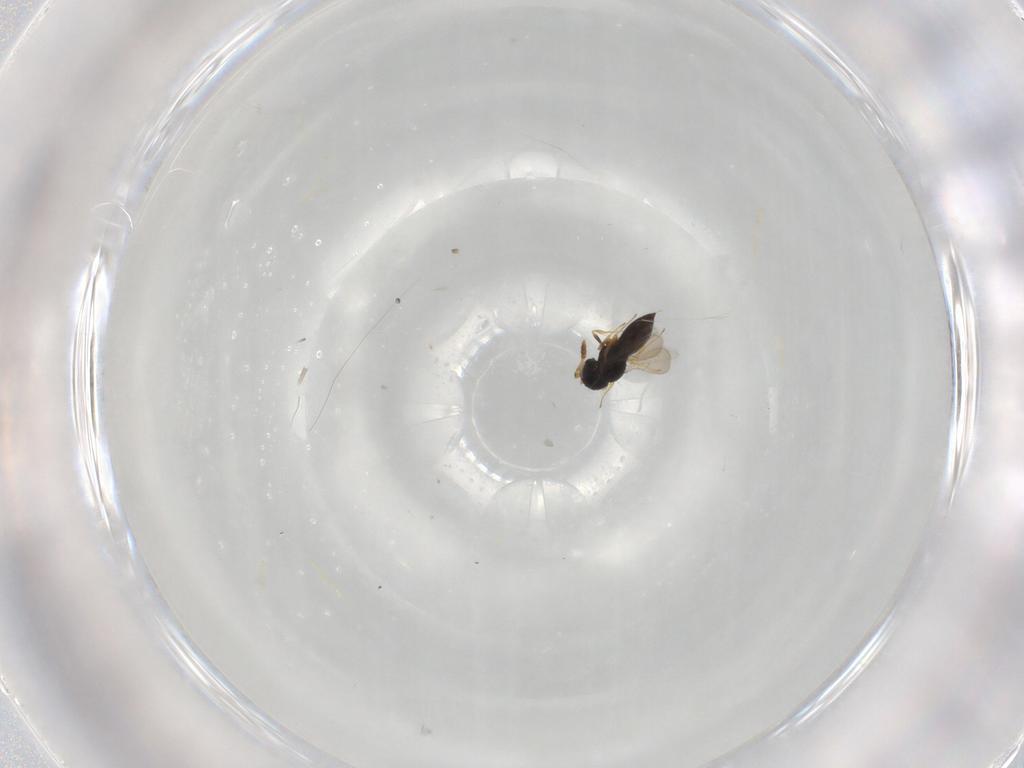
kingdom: Animalia
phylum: Arthropoda
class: Insecta
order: Hymenoptera
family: Scelionidae
